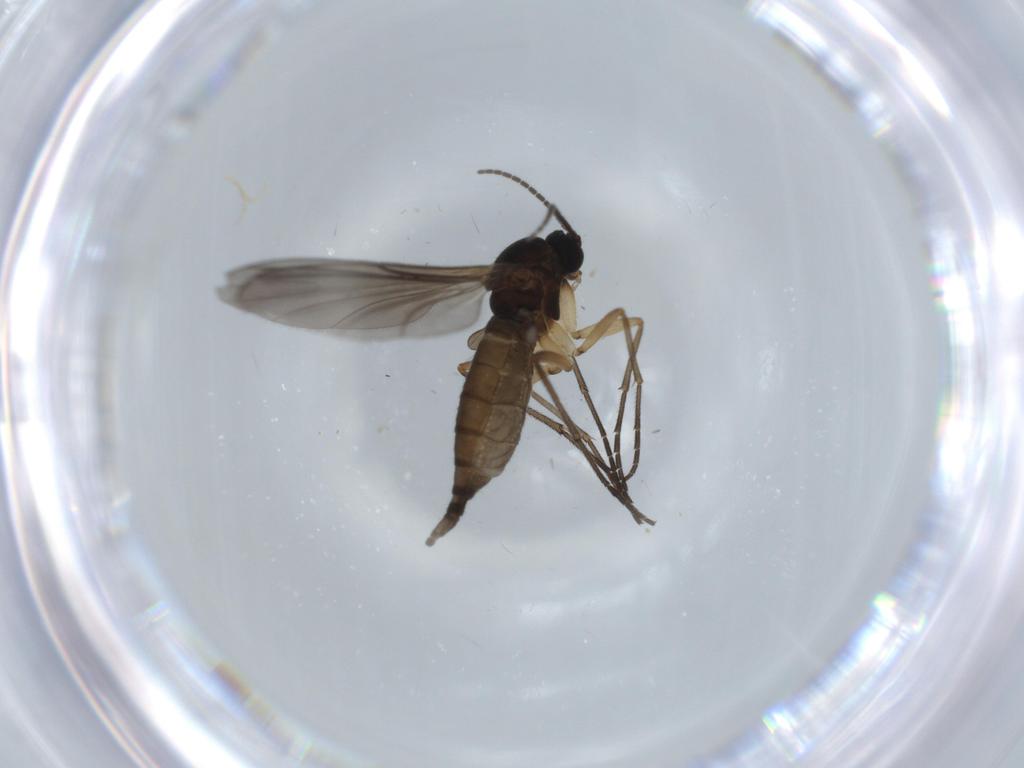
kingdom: Animalia
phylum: Arthropoda
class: Insecta
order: Diptera
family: Sciaridae
